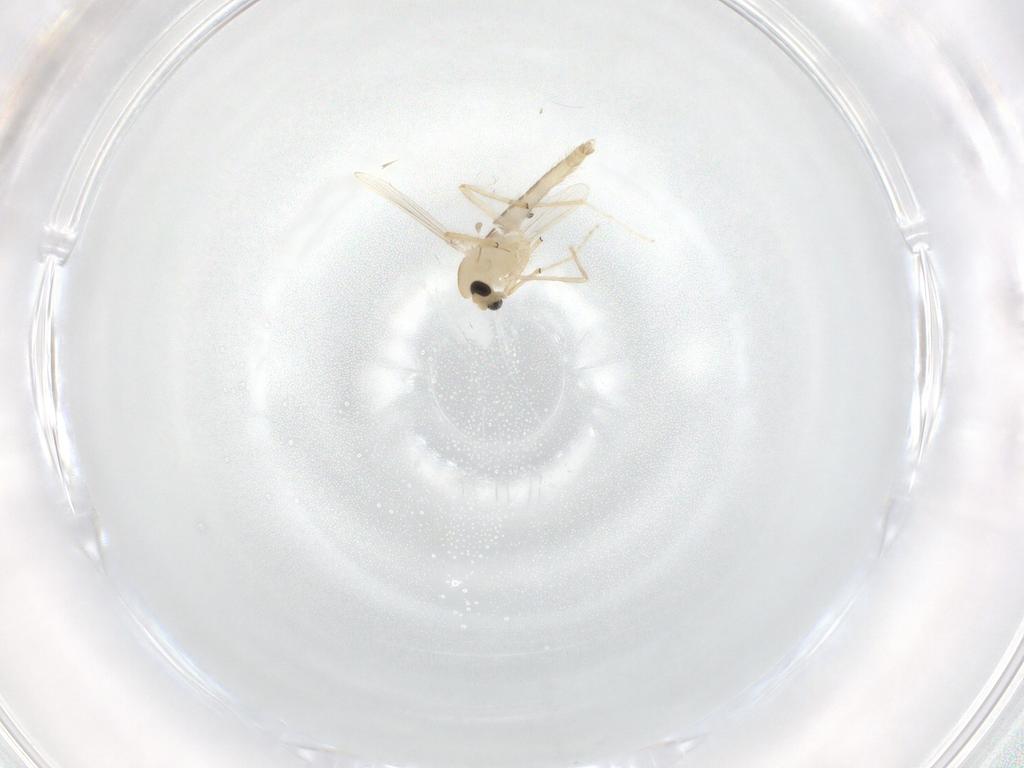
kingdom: Animalia
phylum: Arthropoda
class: Insecta
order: Diptera
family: Chironomidae
